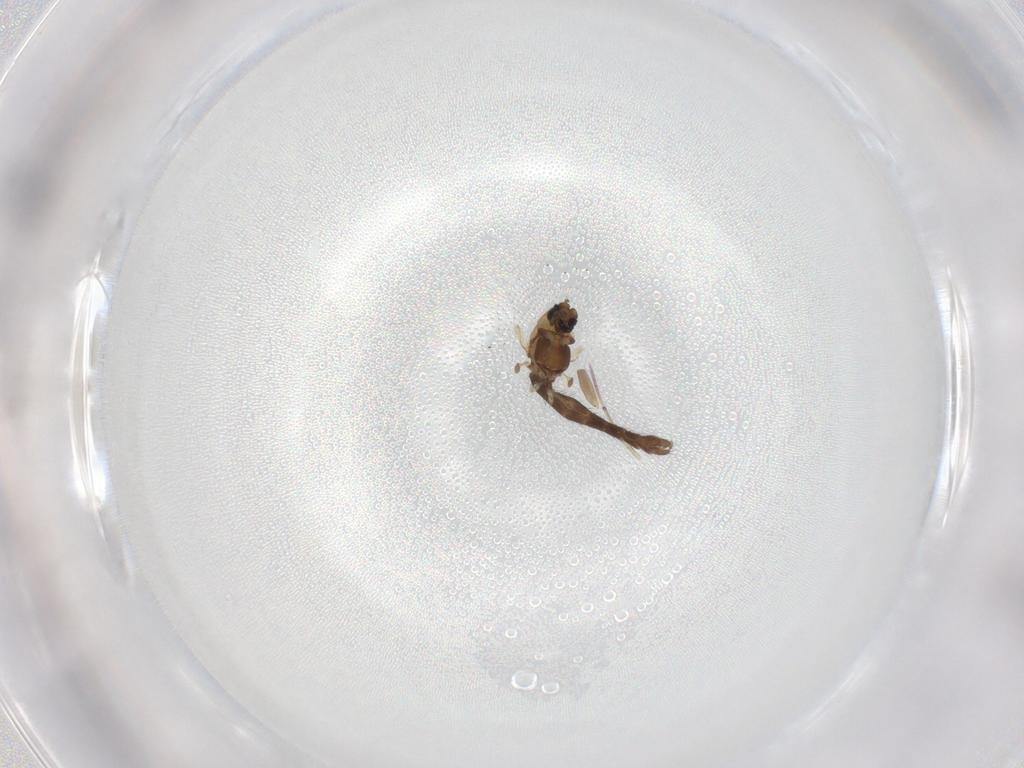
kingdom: Animalia
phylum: Arthropoda
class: Insecta
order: Diptera
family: Chironomidae
